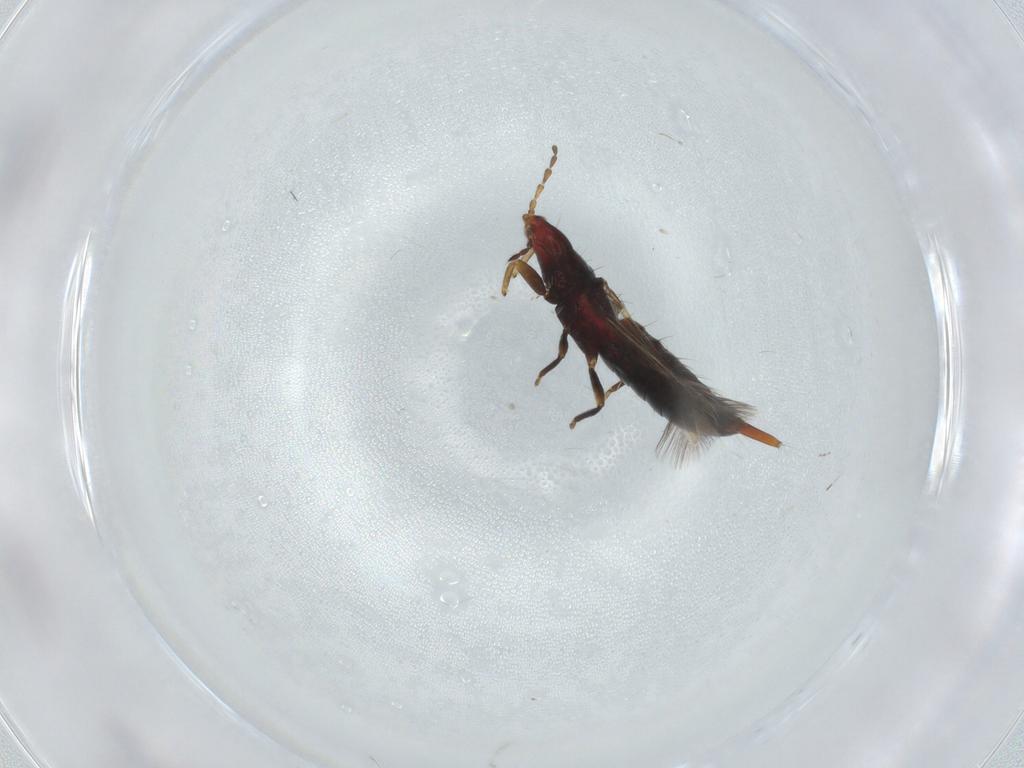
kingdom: Animalia
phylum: Arthropoda
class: Insecta
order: Thysanoptera
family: Phlaeothripidae
